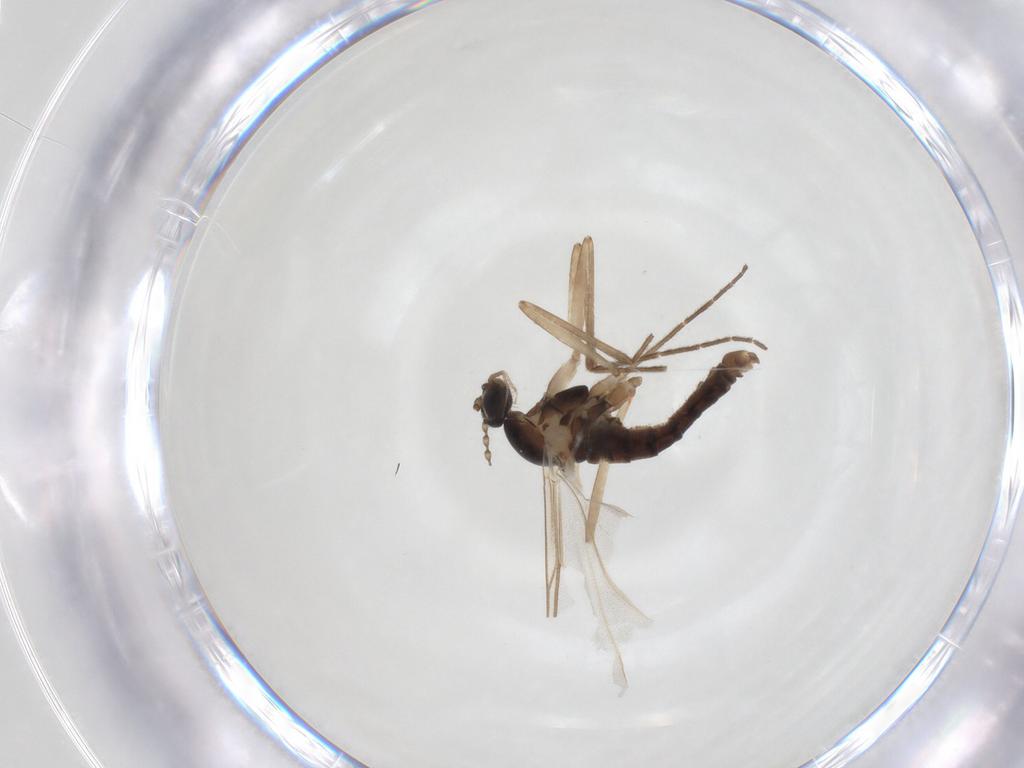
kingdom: Animalia
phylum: Arthropoda
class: Insecta
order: Diptera
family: Cecidomyiidae
